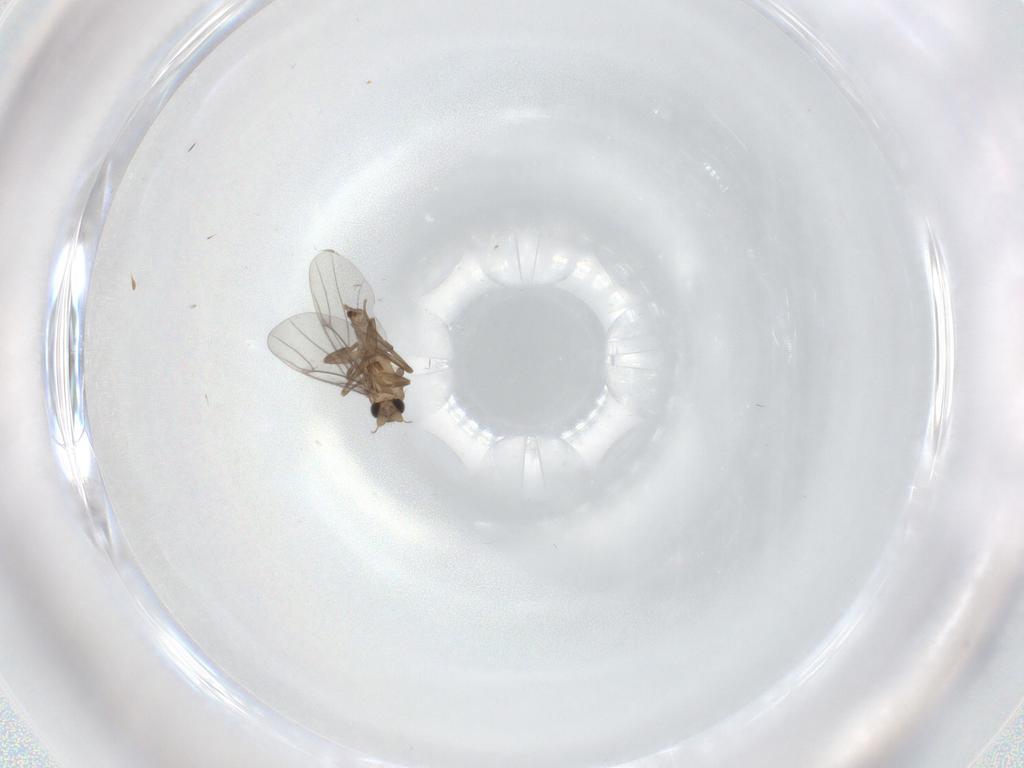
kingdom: Animalia
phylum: Arthropoda
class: Insecta
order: Diptera
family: Cecidomyiidae
